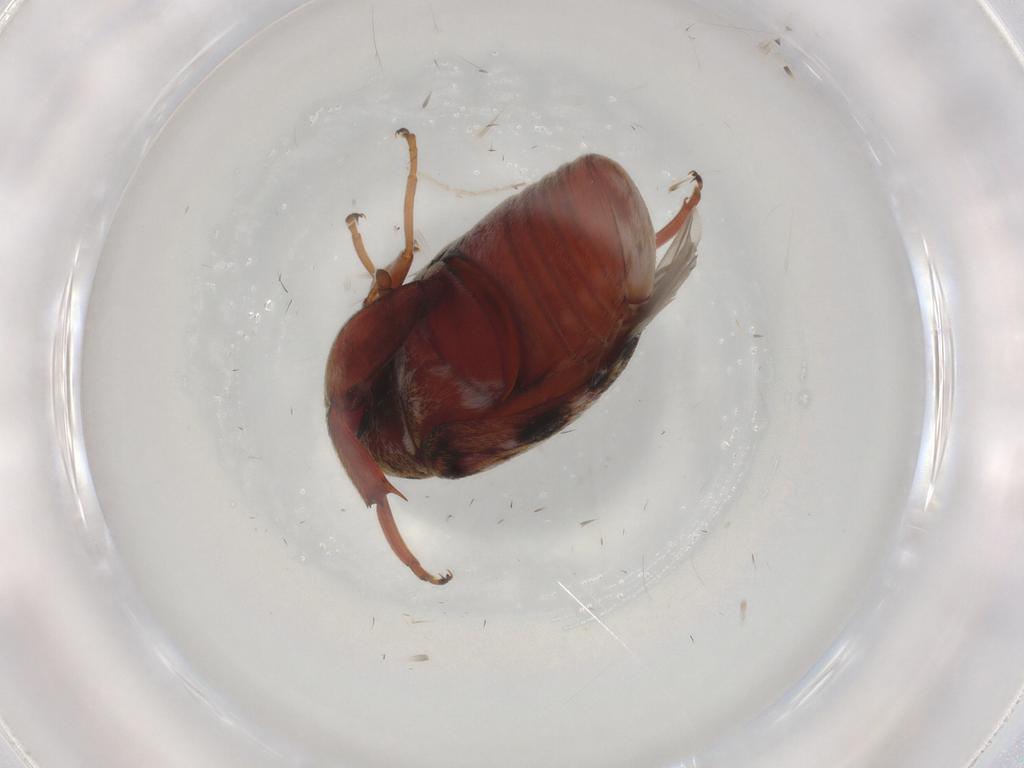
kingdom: Animalia
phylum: Arthropoda
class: Insecta
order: Coleoptera
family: Chrysomelidae
